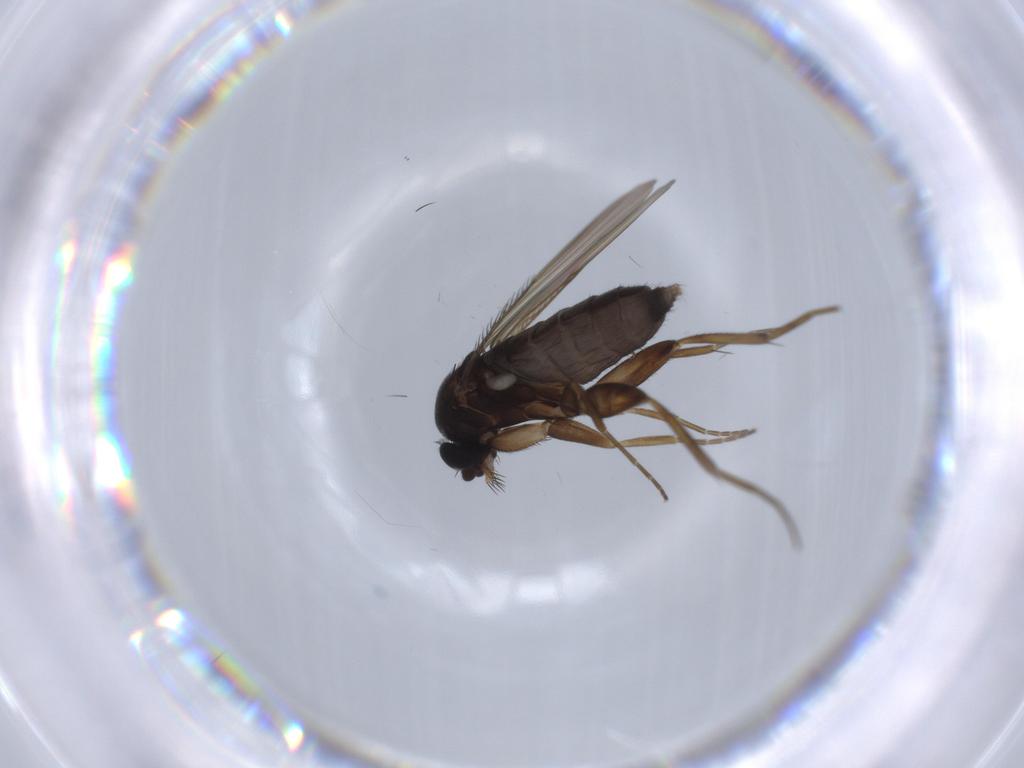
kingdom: Animalia
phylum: Arthropoda
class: Insecta
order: Diptera
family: Phoridae
